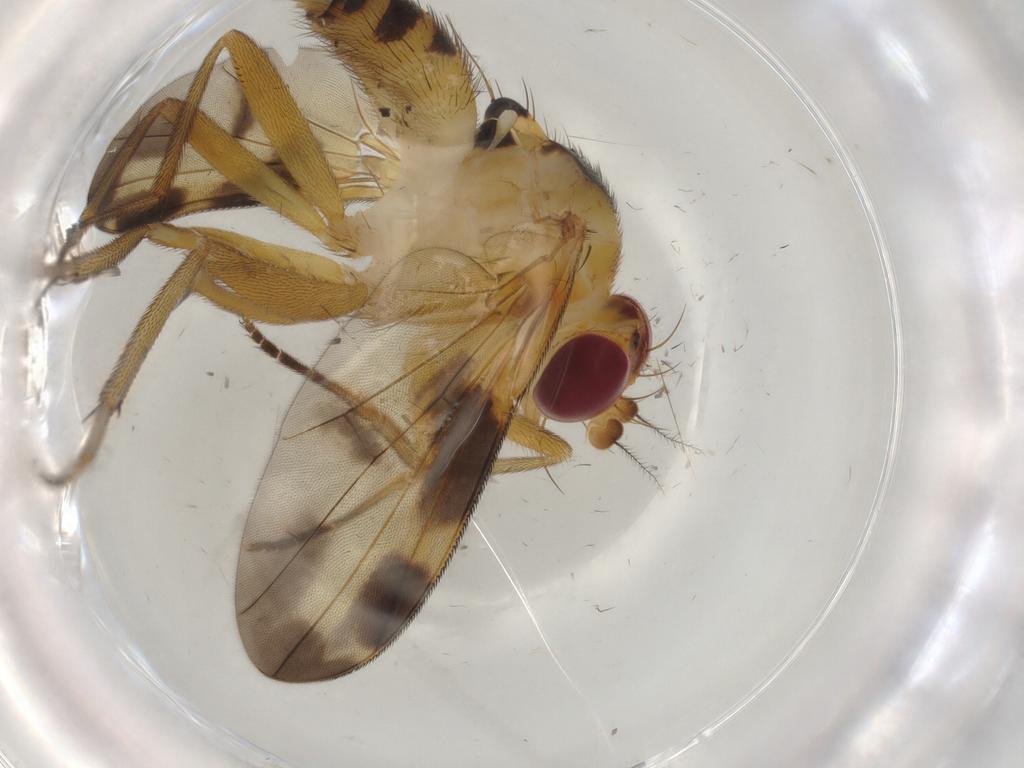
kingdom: Animalia
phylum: Arthropoda
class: Insecta
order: Diptera
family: Clusiidae
